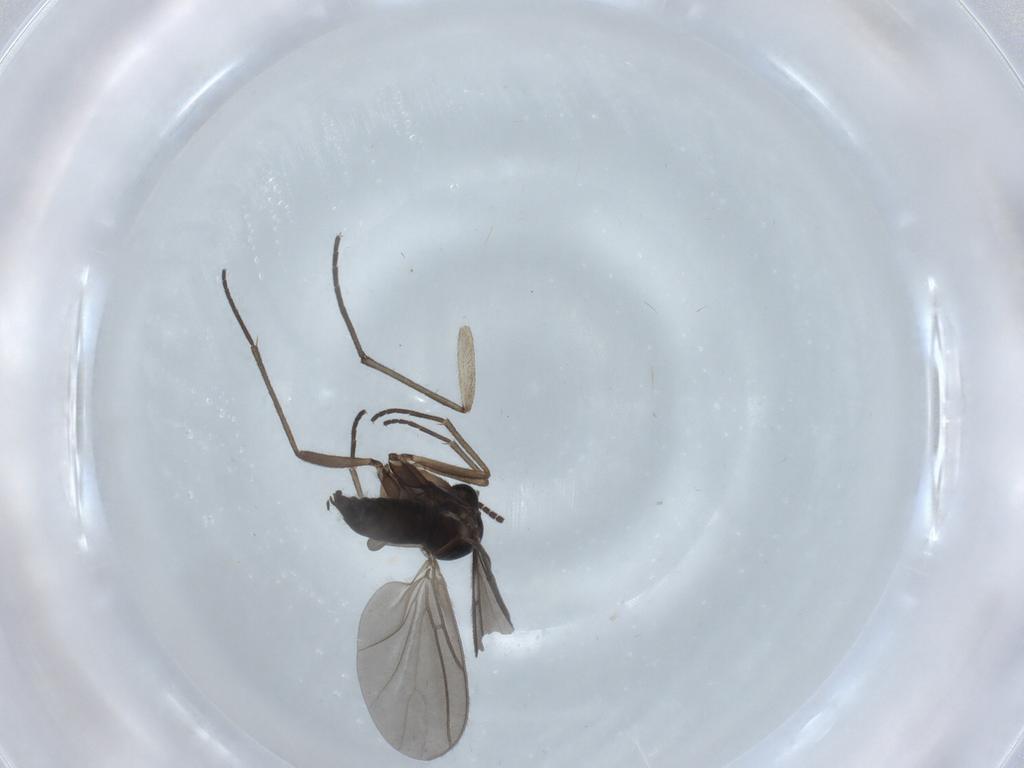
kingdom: Animalia
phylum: Arthropoda
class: Insecta
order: Diptera
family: Sciaridae
